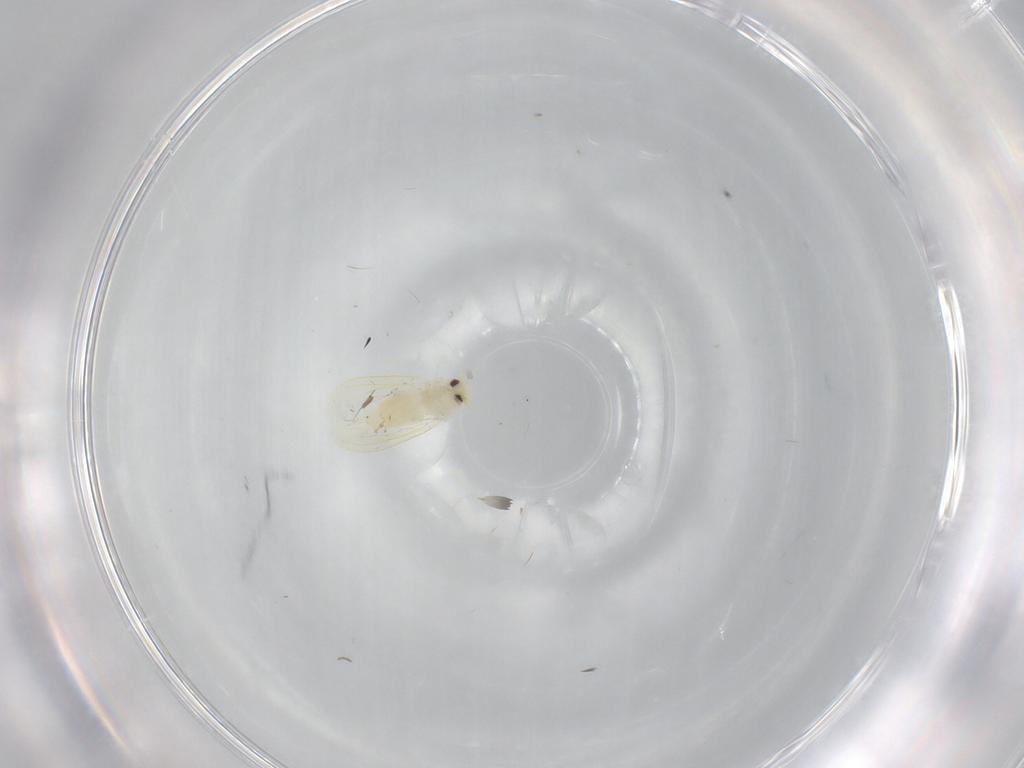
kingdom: Animalia
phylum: Arthropoda
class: Insecta
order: Hemiptera
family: Aleyrodidae
